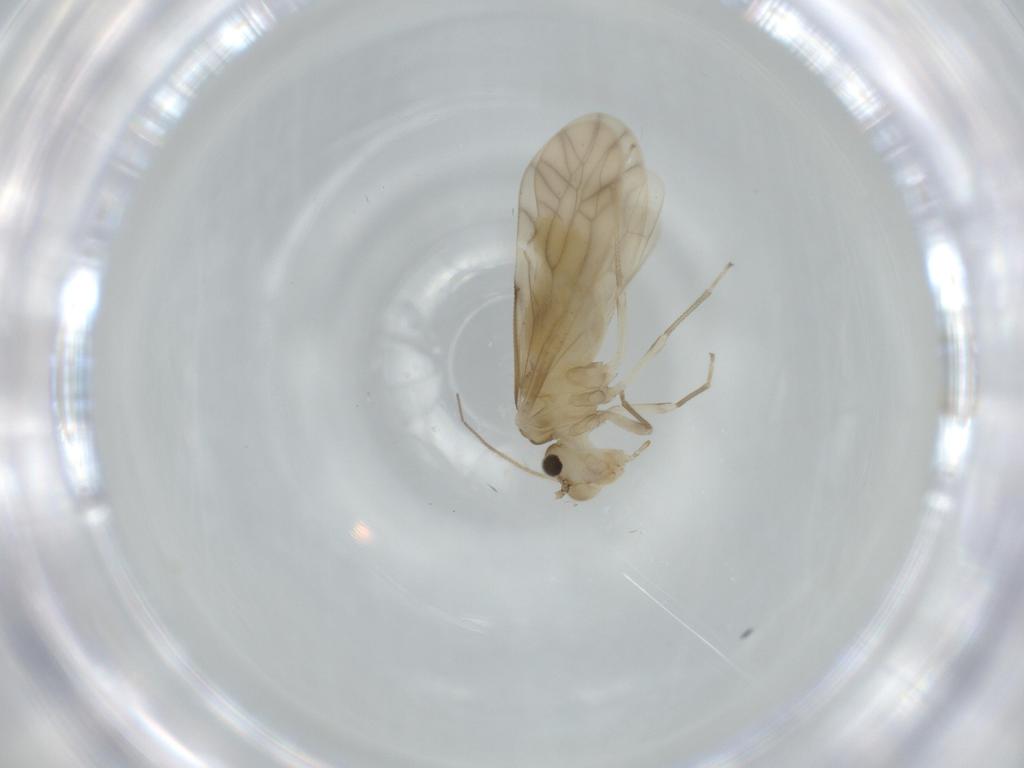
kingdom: Animalia
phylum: Arthropoda
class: Insecta
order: Psocodea
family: Caeciliusidae
